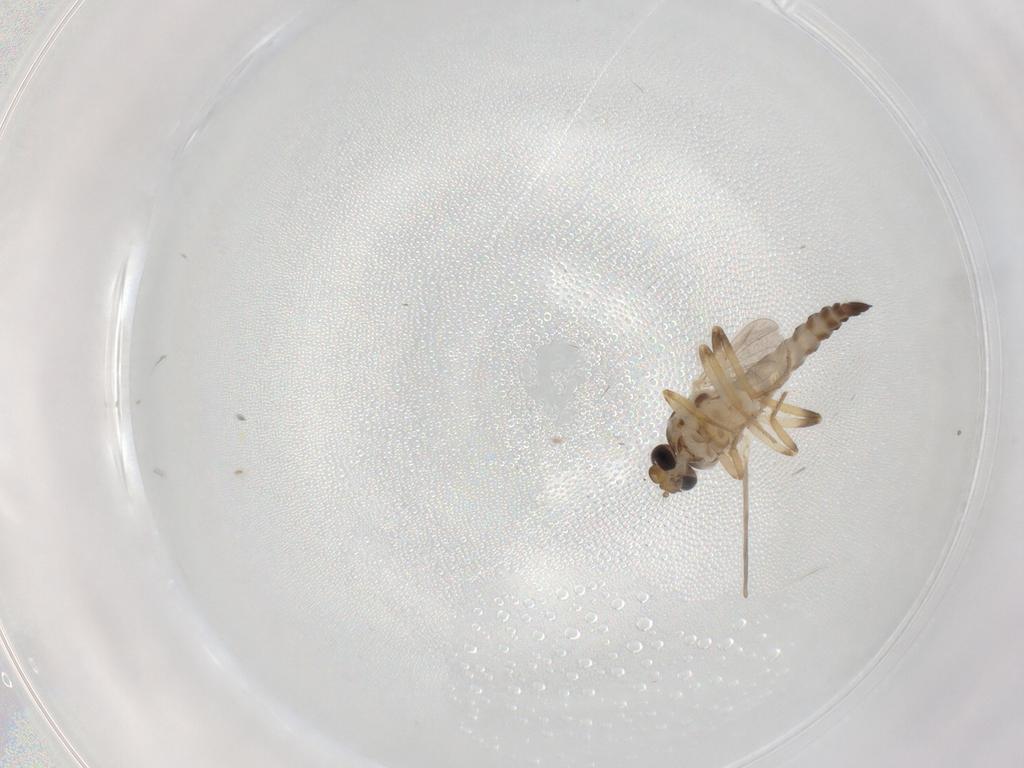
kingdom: Animalia
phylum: Arthropoda
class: Insecta
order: Diptera
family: Ceratopogonidae
